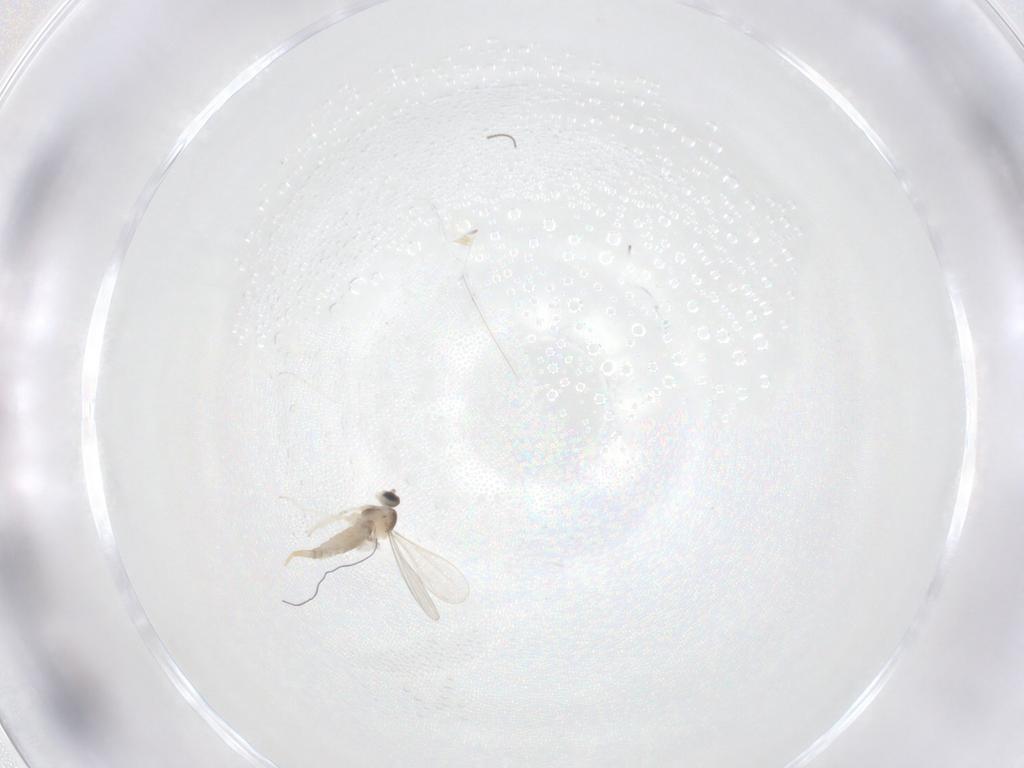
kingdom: Animalia
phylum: Arthropoda
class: Insecta
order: Diptera
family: Chironomidae
